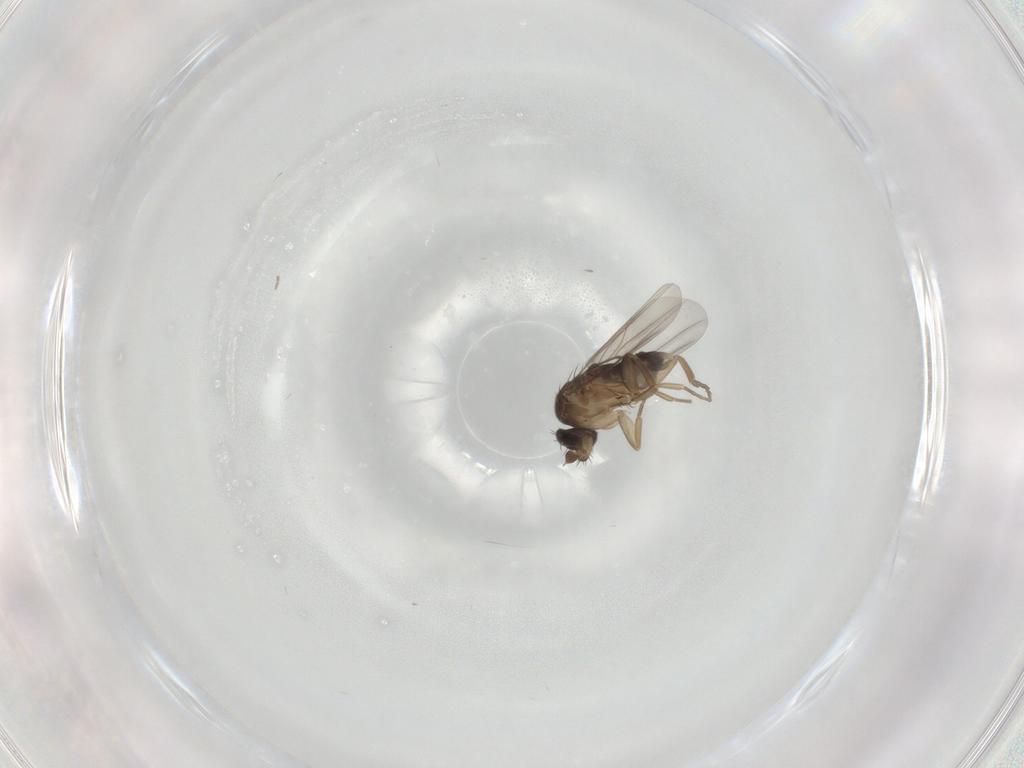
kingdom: Animalia
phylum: Arthropoda
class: Insecta
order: Diptera
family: Phoridae
